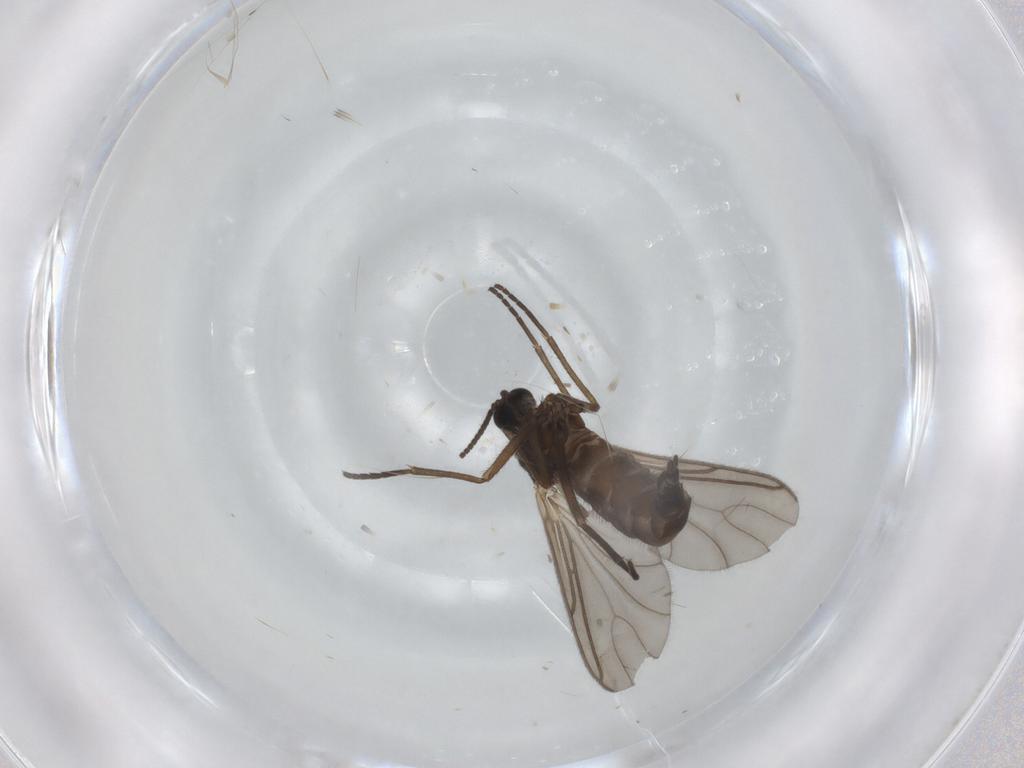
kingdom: Animalia
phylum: Arthropoda
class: Insecta
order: Diptera
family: Sciaridae
